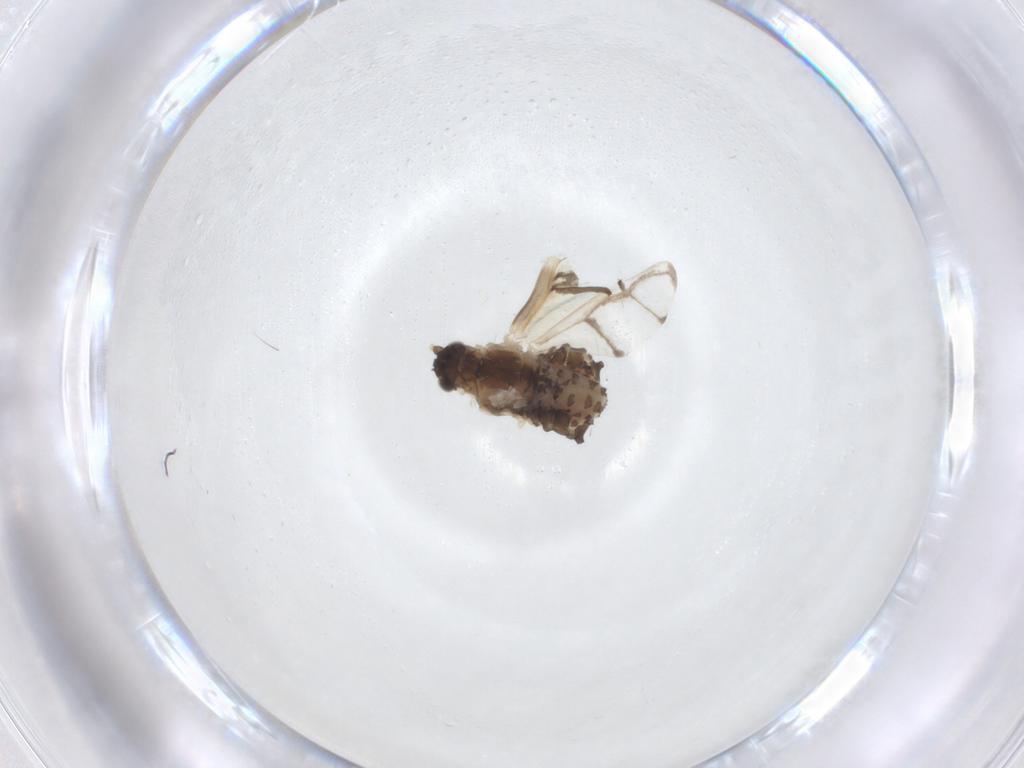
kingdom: Animalia
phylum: Arthropoda
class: Insecta
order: Hemiptera
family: Aphididae
